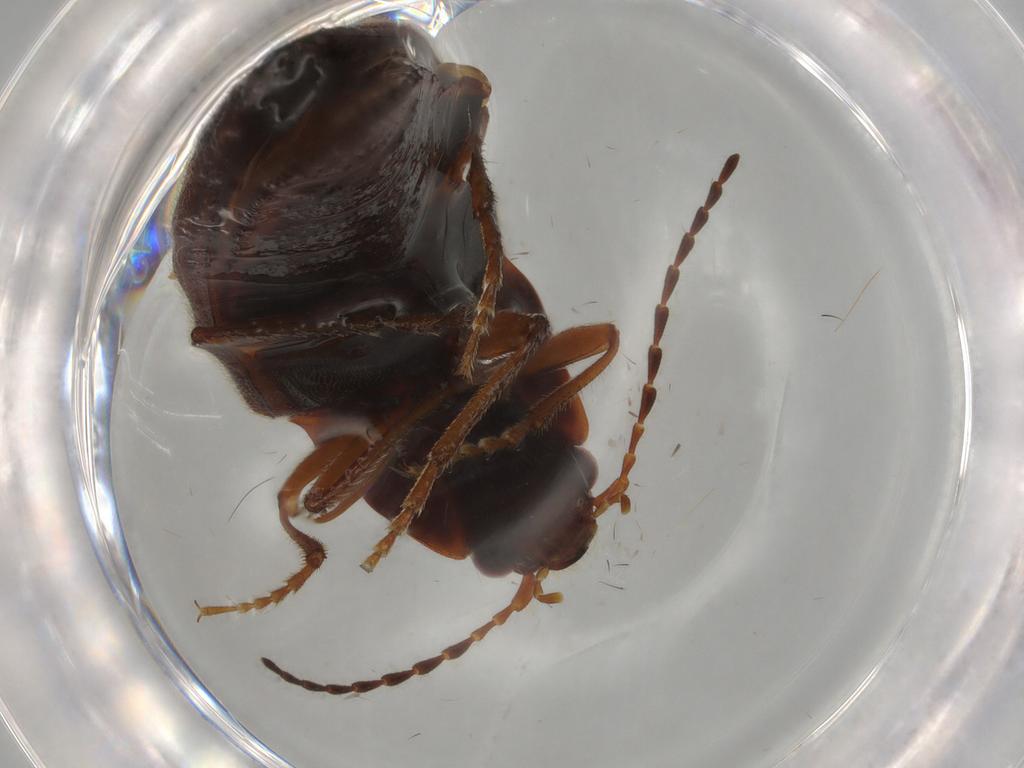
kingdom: Animalia
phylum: Arthropoda
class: Insecta
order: Coleoptera
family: Elateridae
